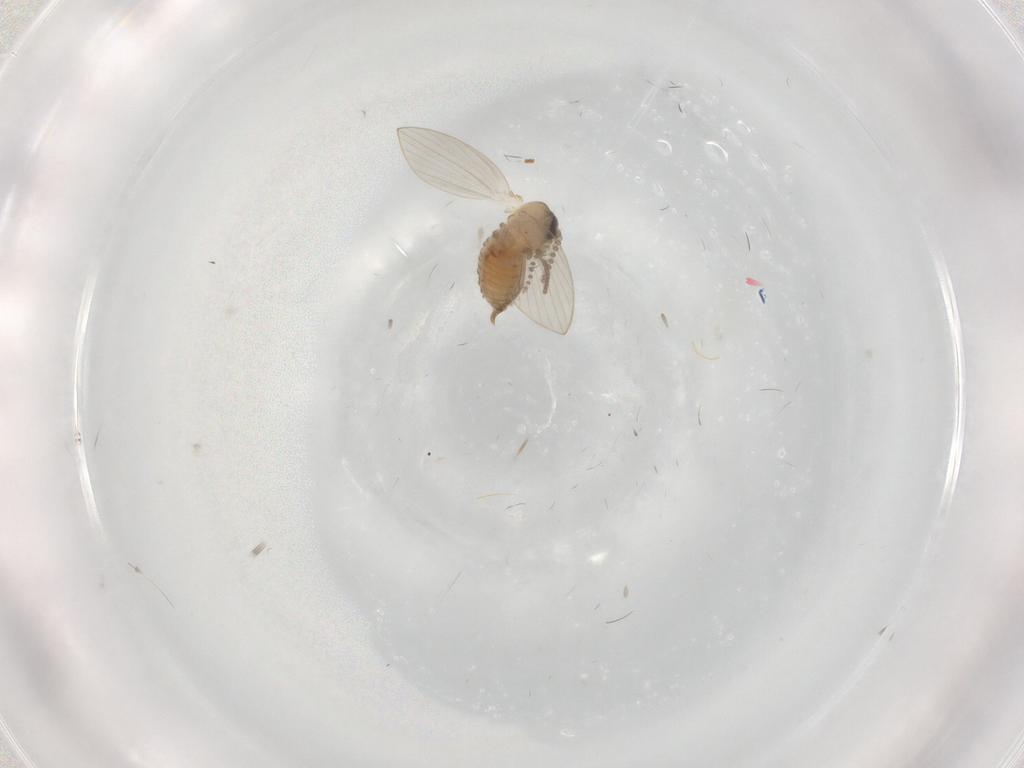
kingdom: Animalia
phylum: Arthropoda
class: Insecta
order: Diptera
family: Psychodidae
